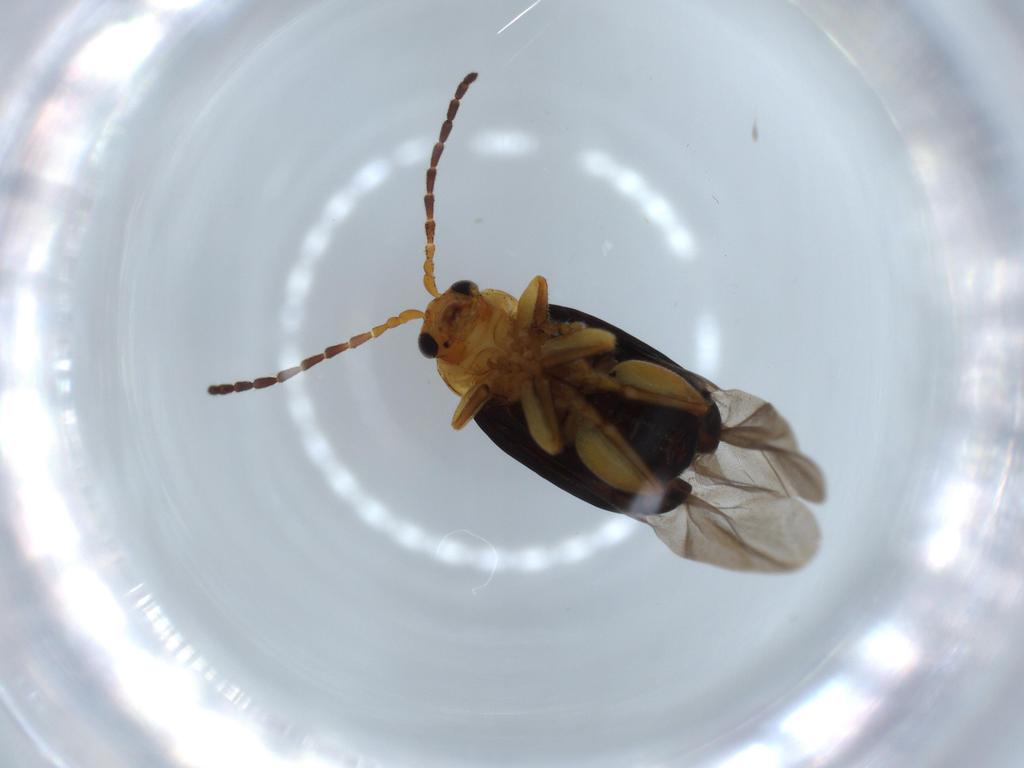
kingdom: Animalia
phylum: Arthropoda
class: Insecta
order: Coleoptera
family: Chrysomelidae
